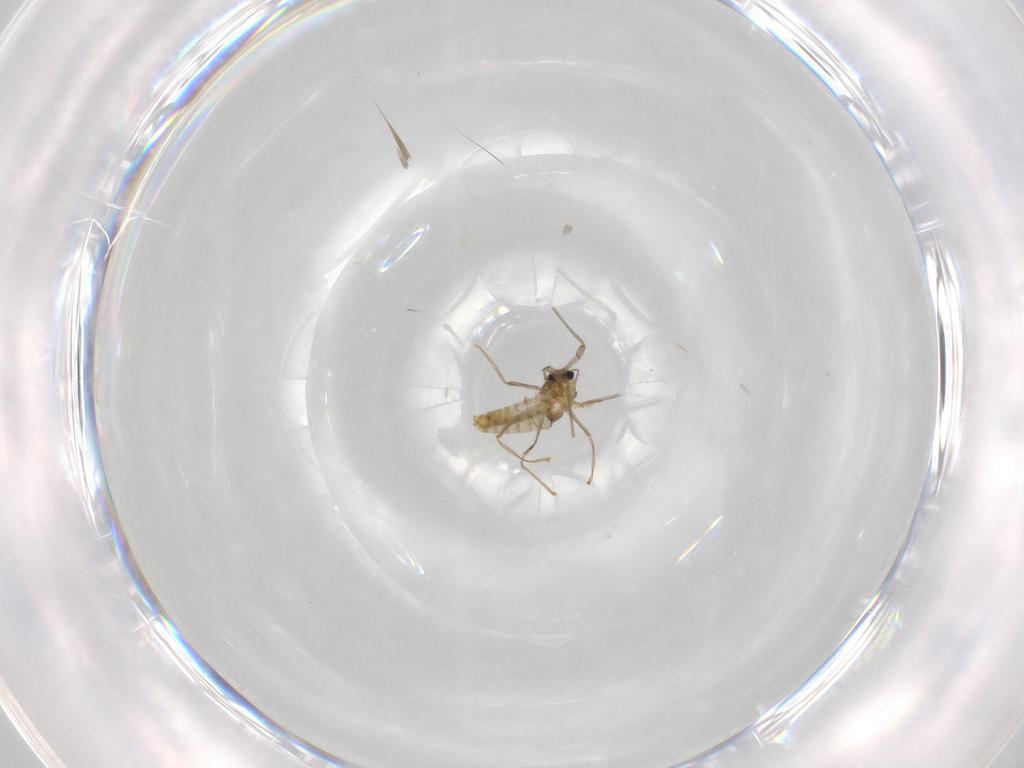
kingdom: Animalia
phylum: Arthropoda
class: Insecta
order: Diptera
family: Chironomidae
